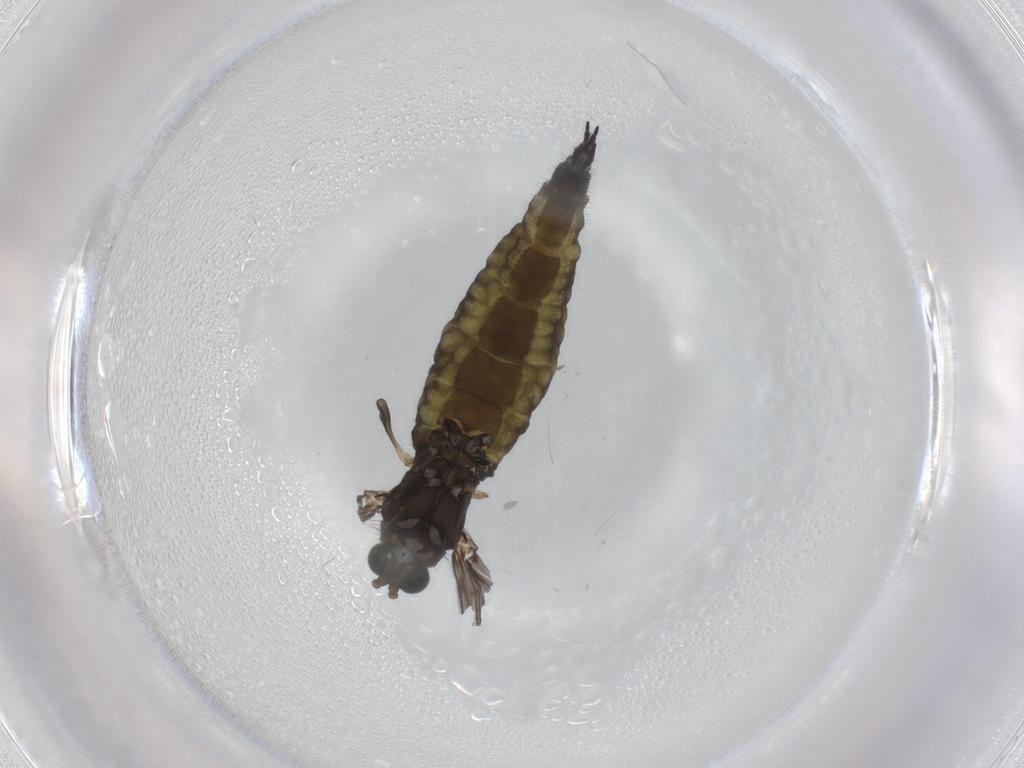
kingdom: Animalia
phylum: Arthropoda
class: Insecta
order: Diptera
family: Sciaridae
